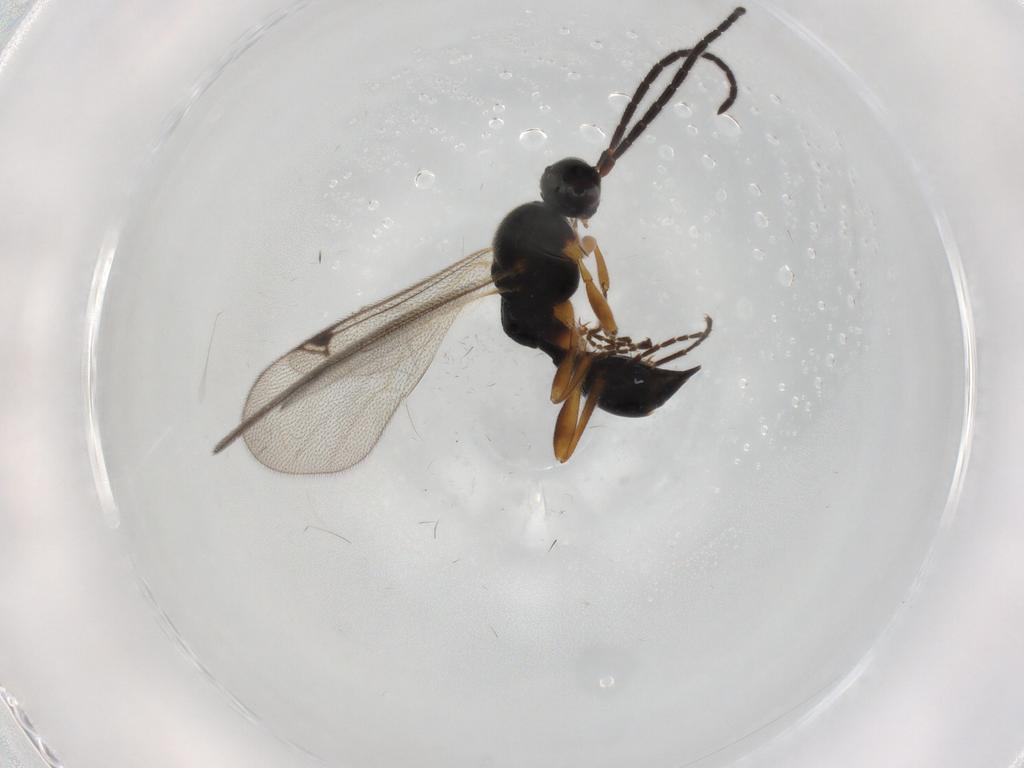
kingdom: Animalia
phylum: Arthropoda
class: Insecta
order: Hymenoptera
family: Proctotrupidae
